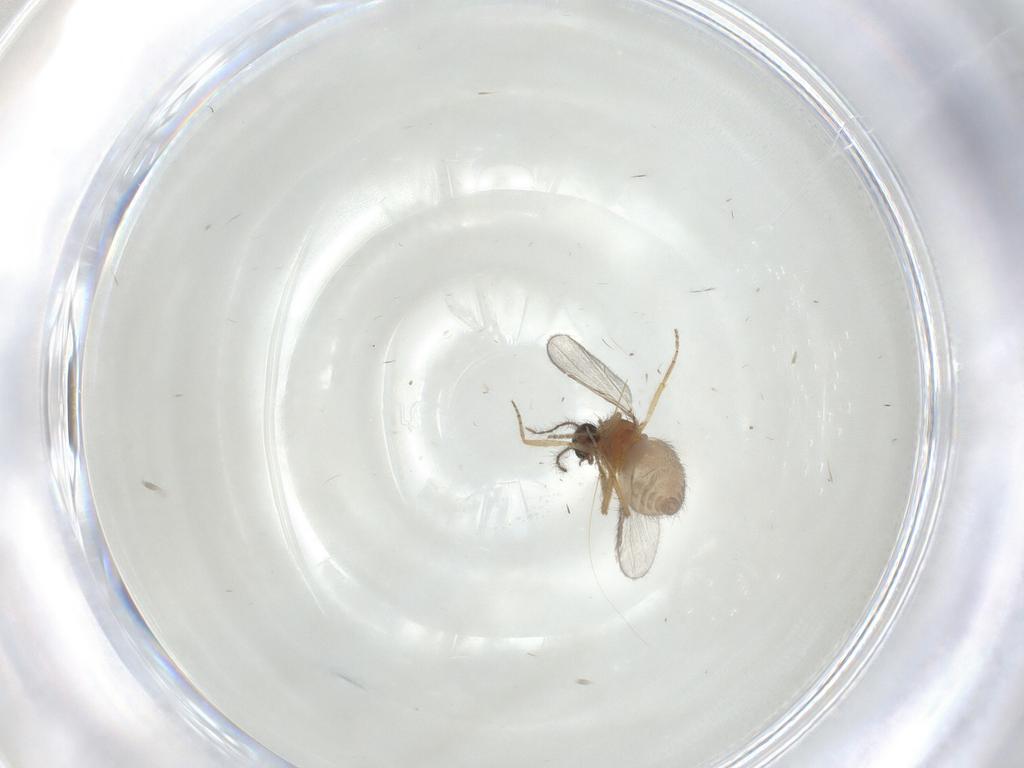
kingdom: Animalia
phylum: Arthropoda
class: Insecta
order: Diptera
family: Ceratopogonidae
